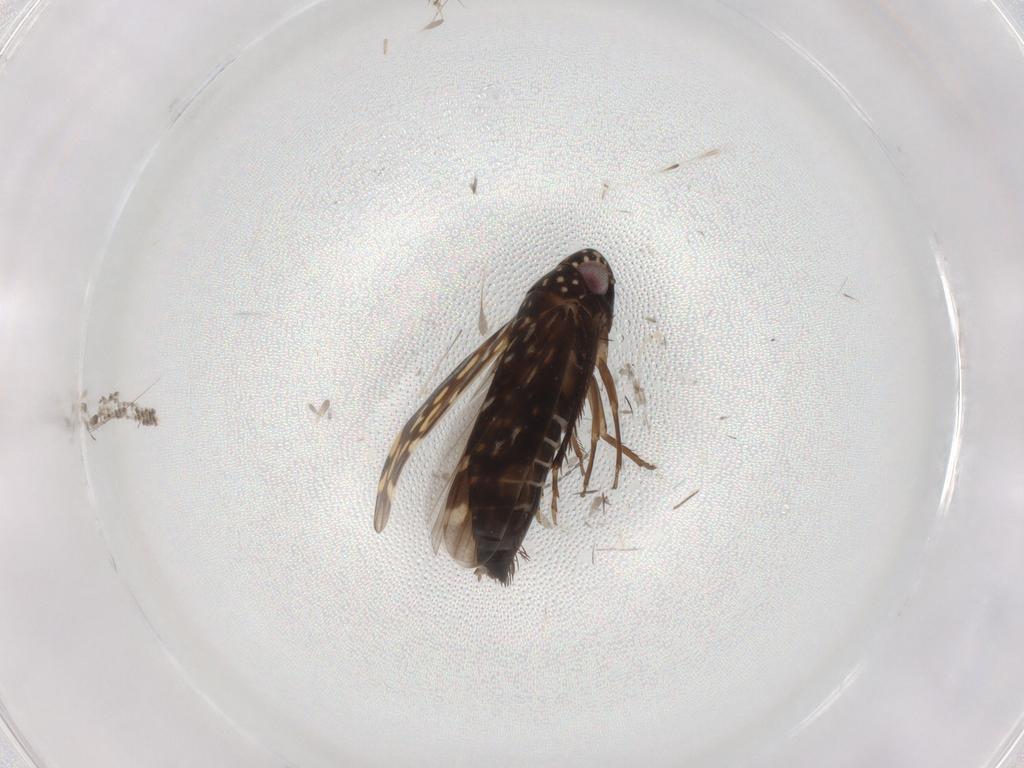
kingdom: Animalia
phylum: Arthropoda
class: Insecta
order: Hemiptera
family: Cicadellidae
